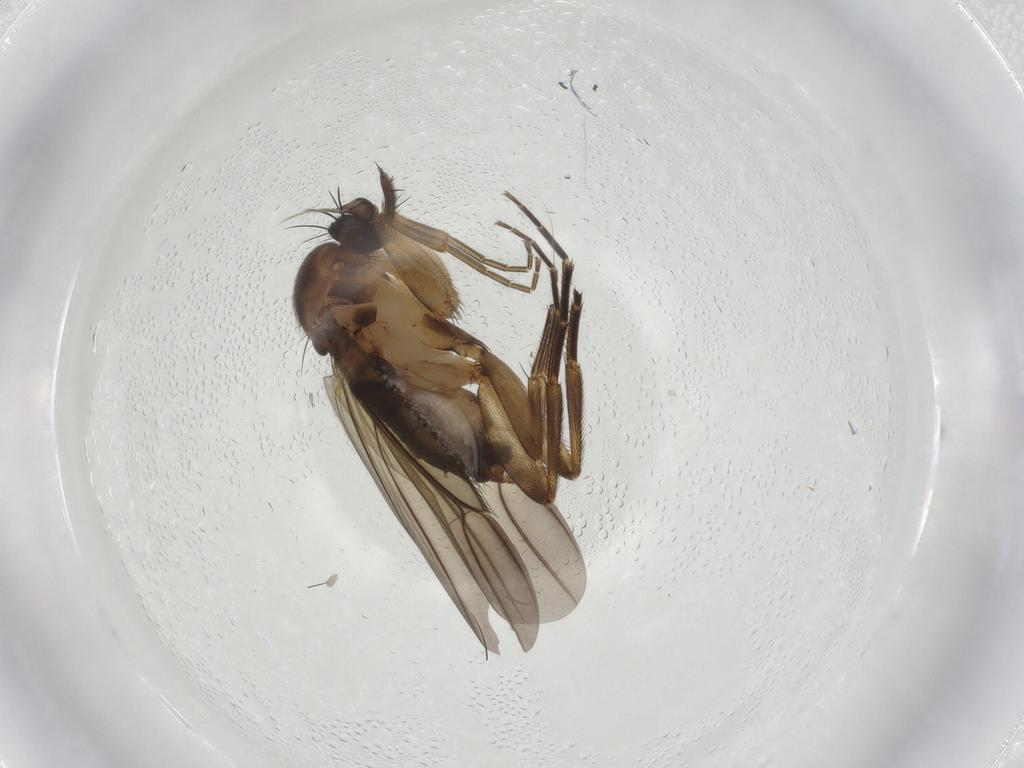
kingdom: Animalia
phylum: Arthropoda
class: Insecta
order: Diptera
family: Phoridae
